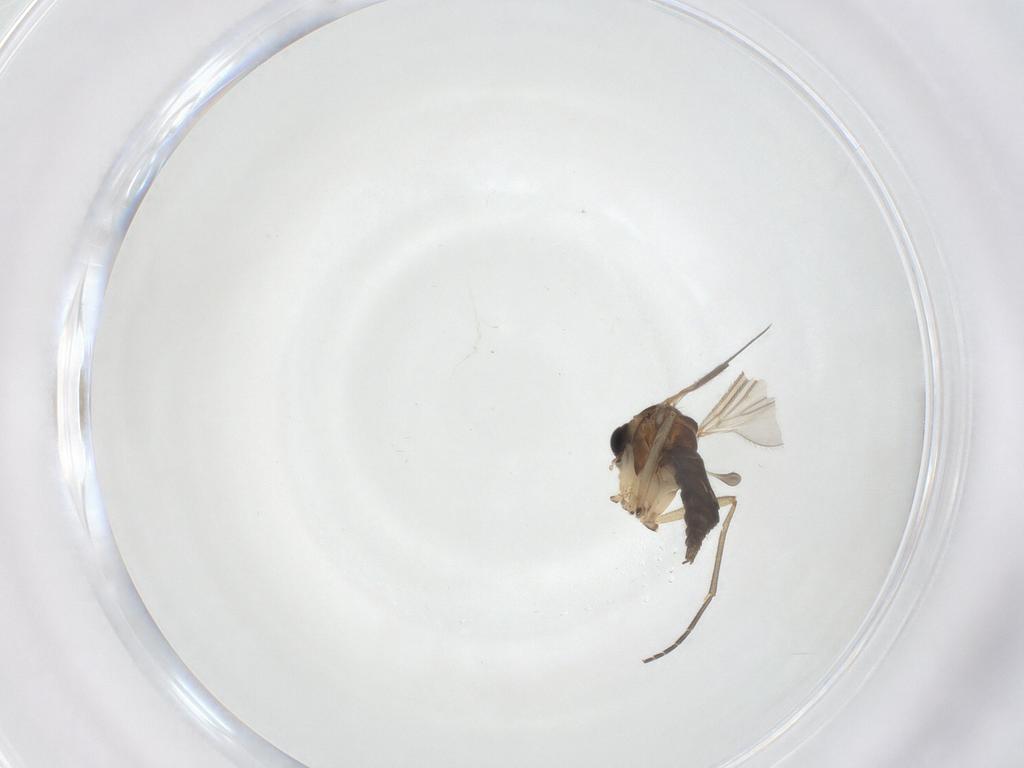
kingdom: Animalia
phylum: Arthropoda
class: Insecta
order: Diptera
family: Sciaridae
